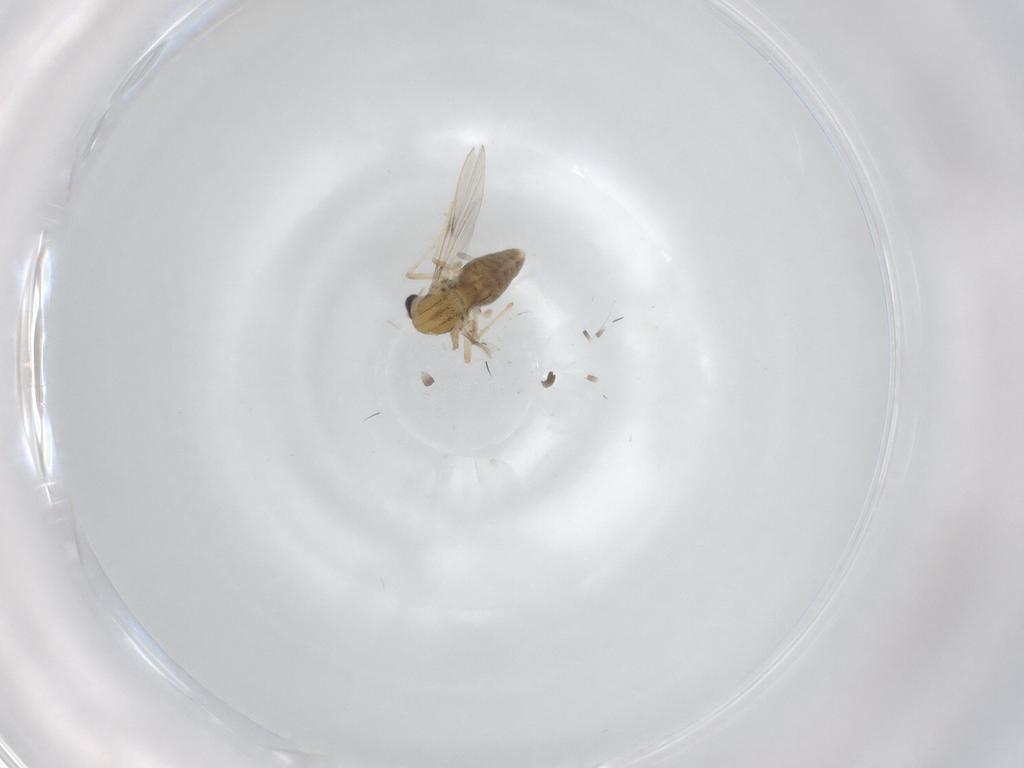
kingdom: Animalia
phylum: Arthropoda
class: Insecta
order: Diptera
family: Chironomidae
